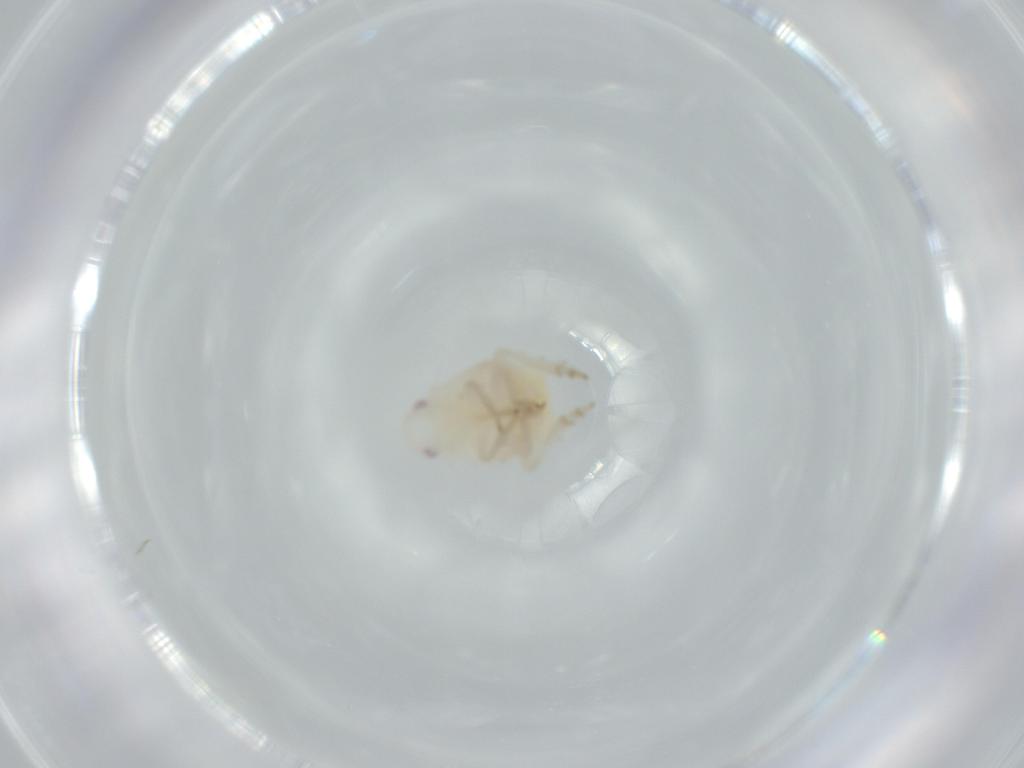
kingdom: Animalia
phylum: Arthropoda
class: Insecta
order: Hemiptera
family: Flatidae
